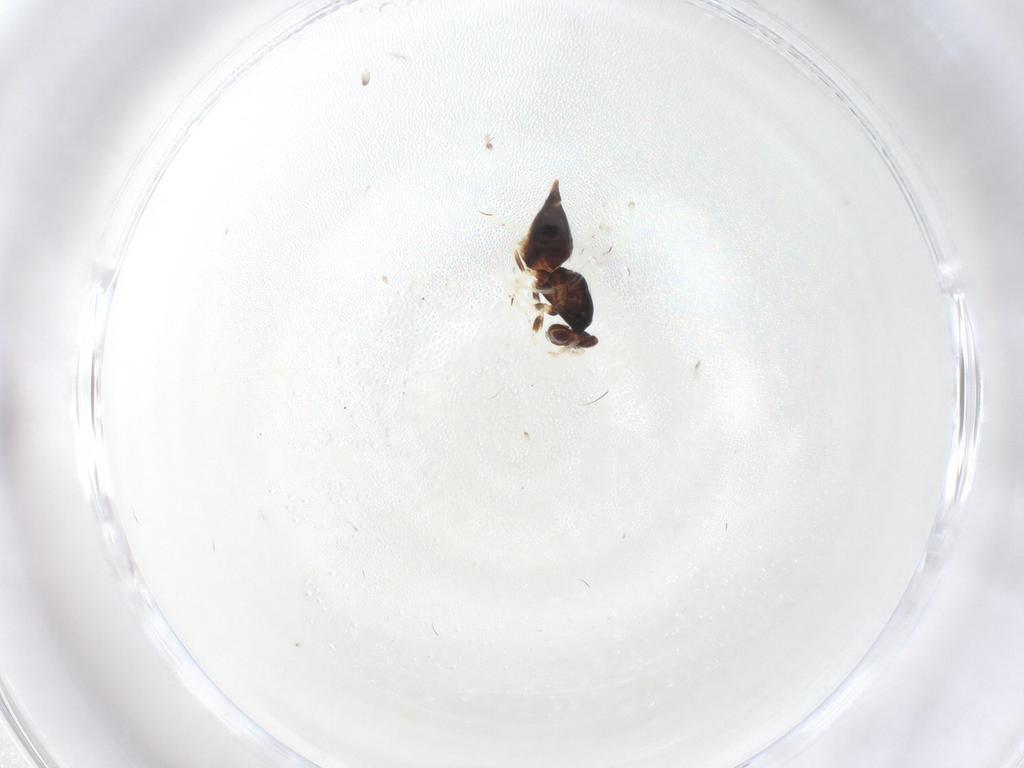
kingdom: Animalia
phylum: Arthropoda
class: Insecta
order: Hymenoptera
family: Eulophidae
